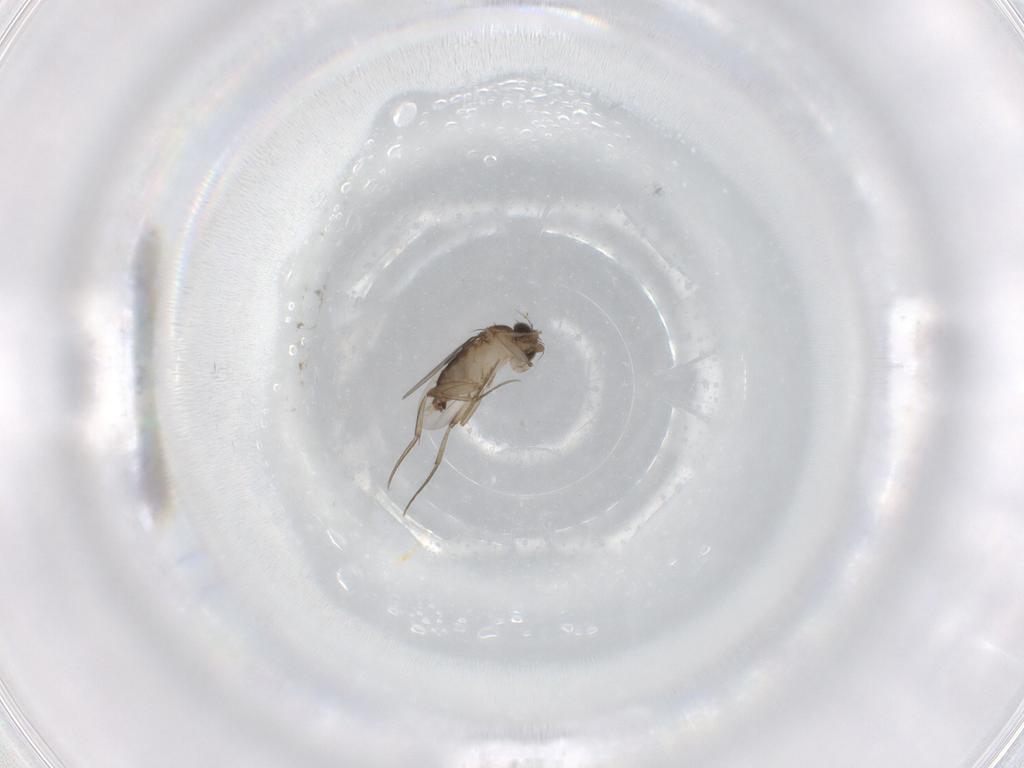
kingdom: Animalia
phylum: Arthropoda
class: Insecta
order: Diptera
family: Phoridae
